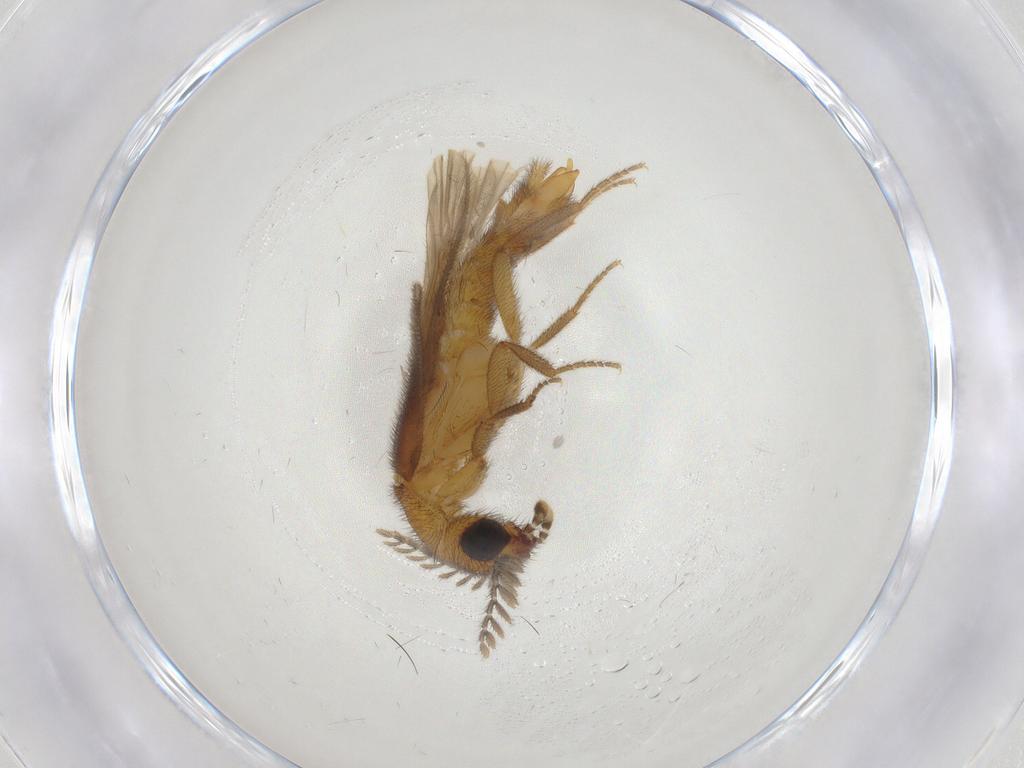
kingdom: Animalia
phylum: Arthropoda
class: Insecta
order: Coleoptera
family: Phengodidae
